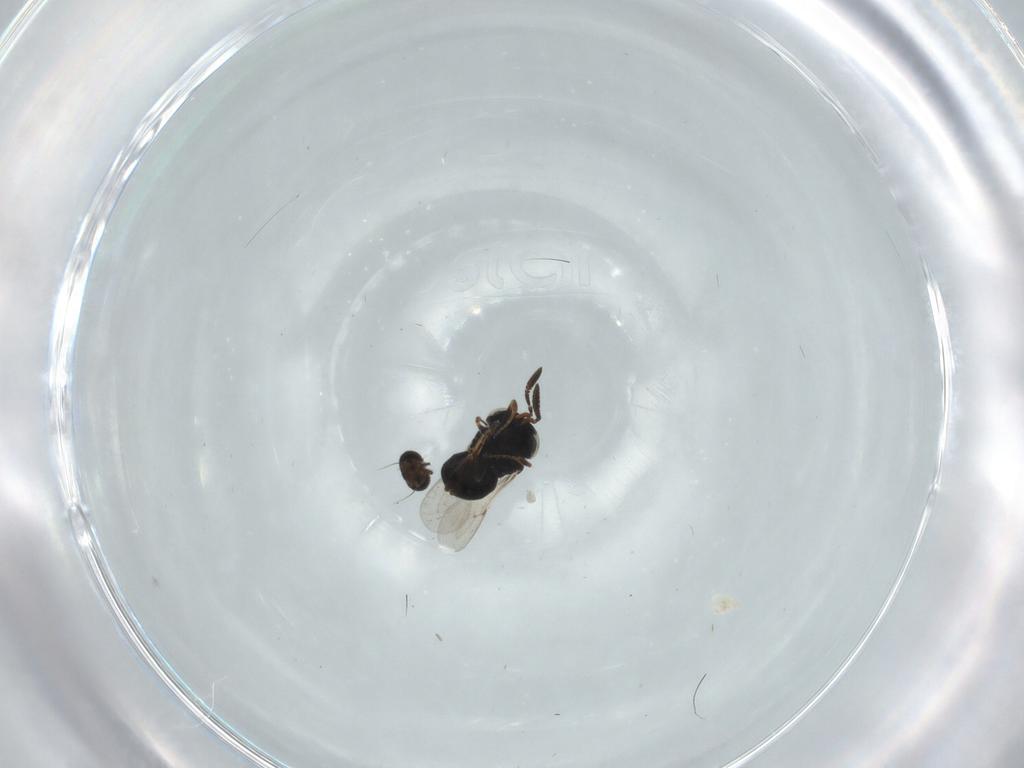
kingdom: Animalia
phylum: Arthropoda
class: Insecta
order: Hymenoptera
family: Scelionidae
